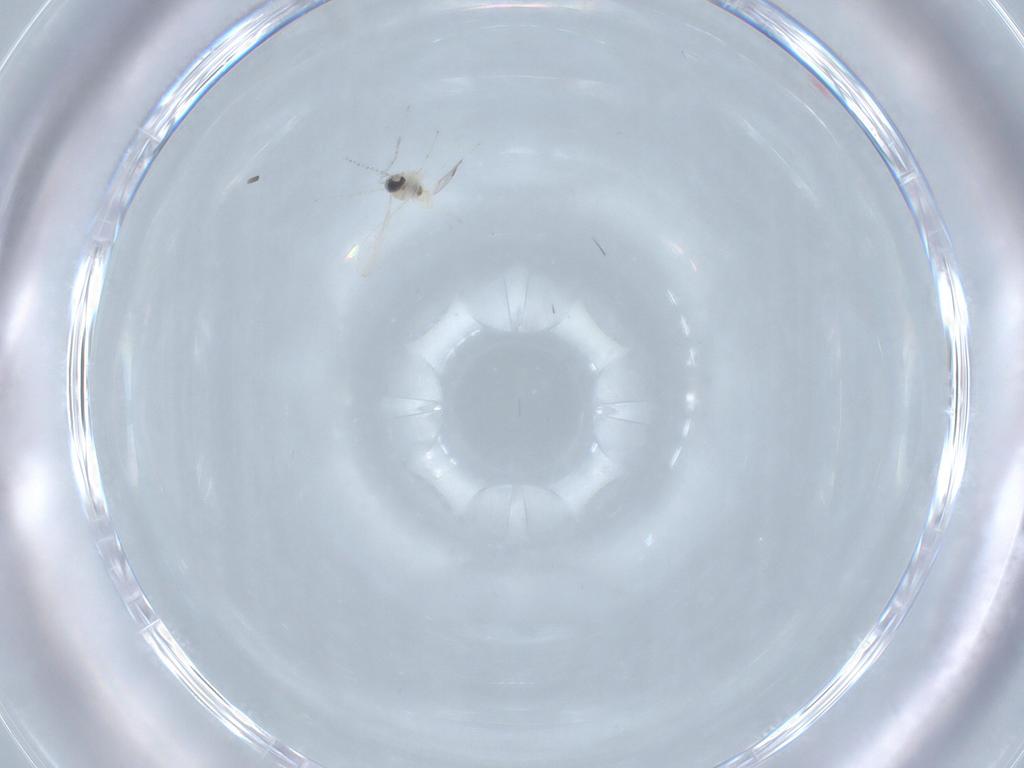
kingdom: Animalia
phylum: Arthropoda
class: Insecta
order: Diptera
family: Cecidomyiidae
